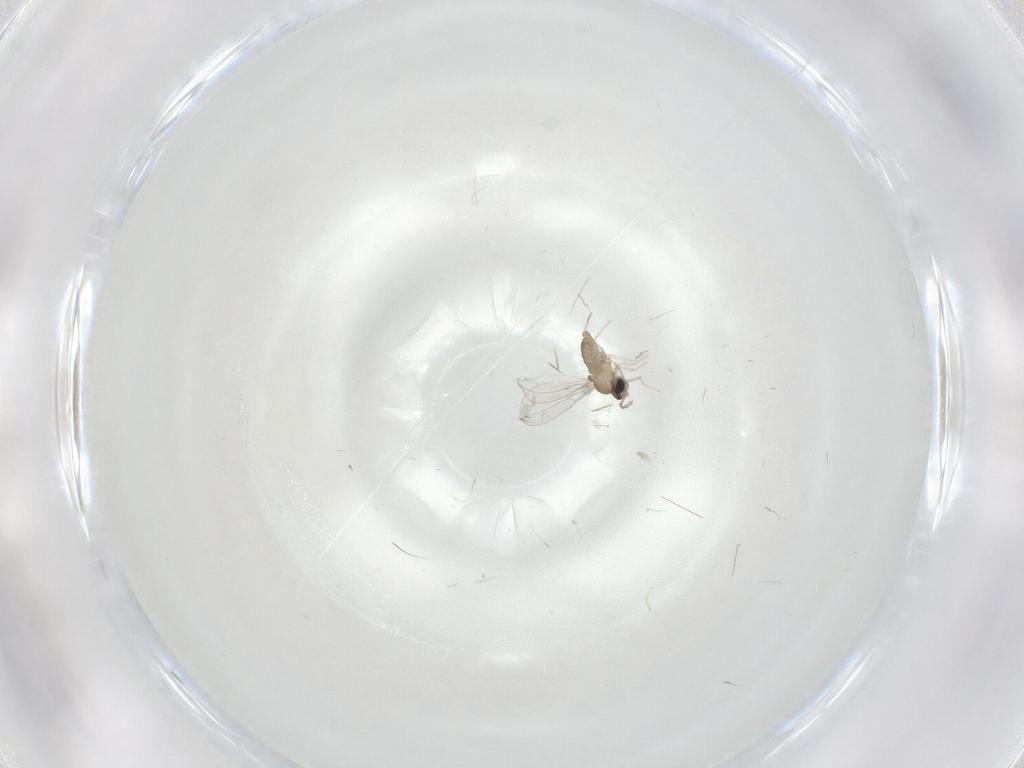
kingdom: Animalia
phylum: Arthropoda
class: Insecta
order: Diptera
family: Cecidomyiidae
